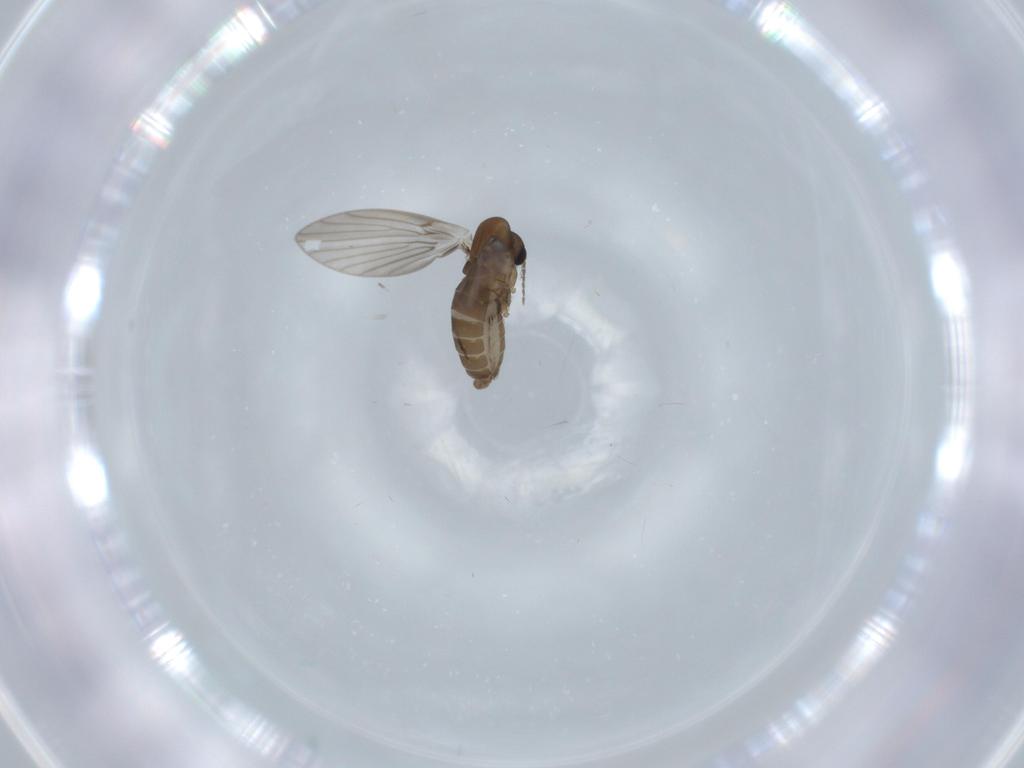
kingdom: Animalia
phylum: Arthropoda
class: Insecta
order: Diptera
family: Psychodidae
